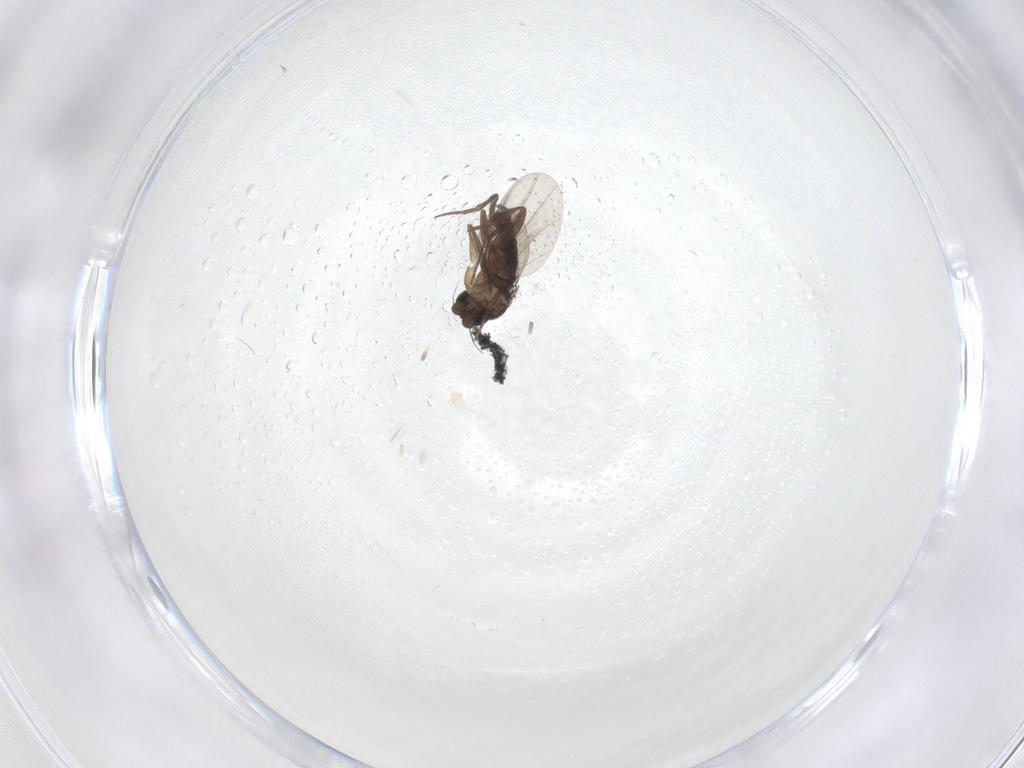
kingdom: Animalia
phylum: Arthropoda
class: Insecta
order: Diptera
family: Phoridae
